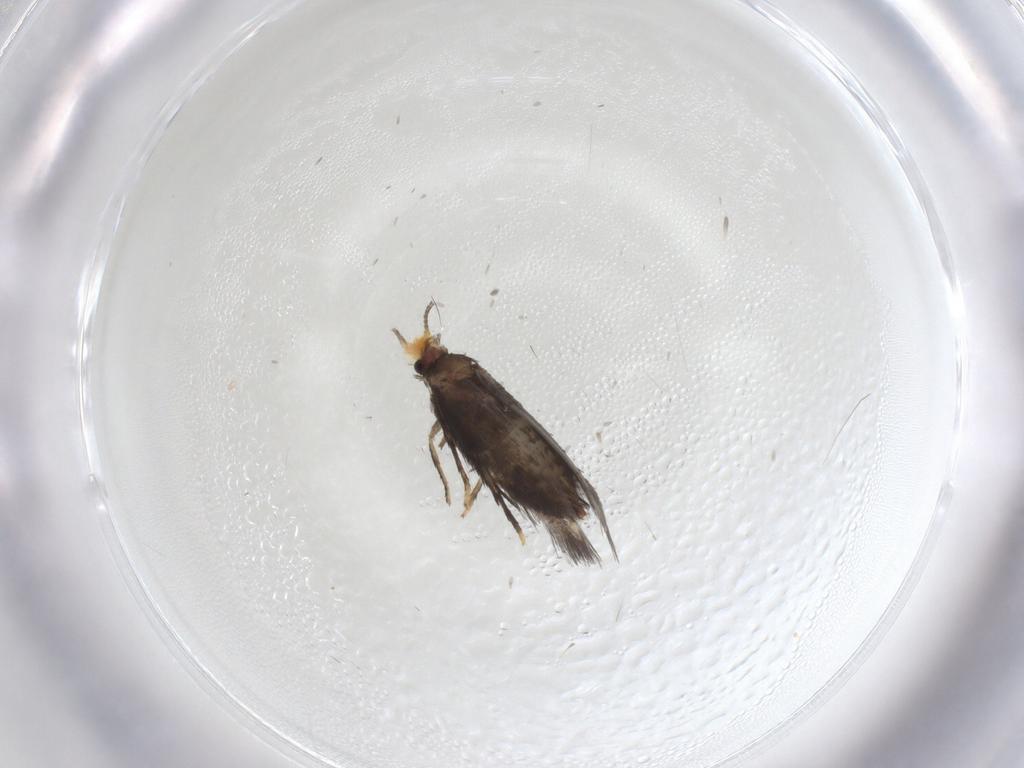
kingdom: Animalia
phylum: Arthropoda
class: Insecta
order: Lepidoptera
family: Nepticulidae
